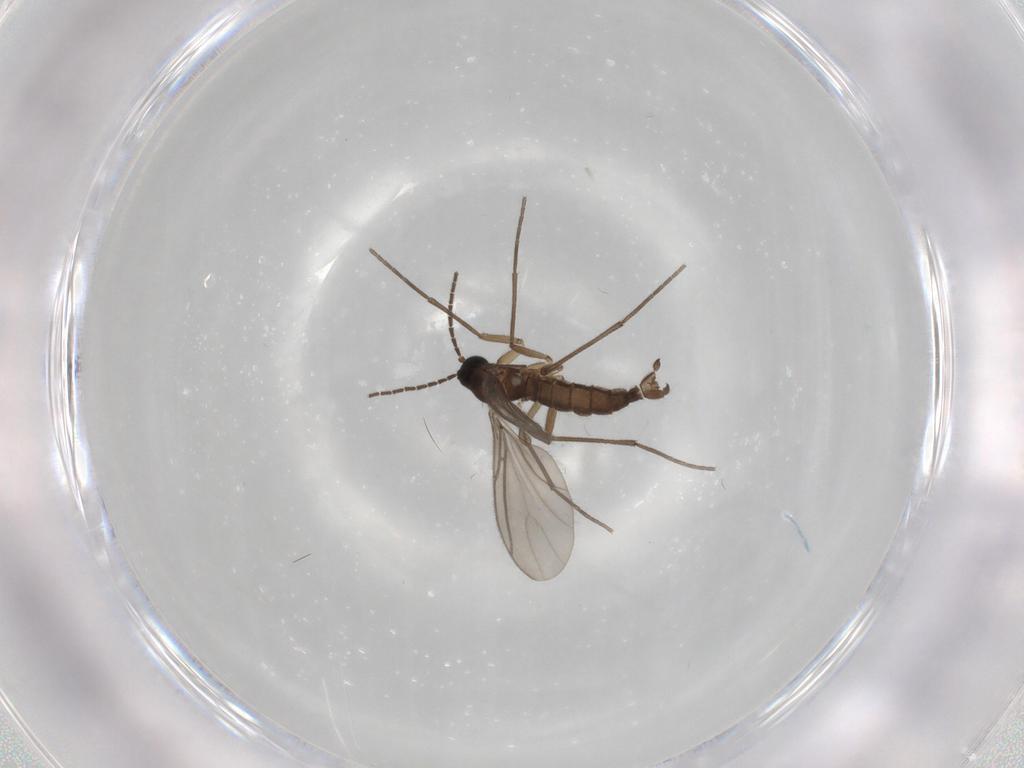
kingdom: Animalia
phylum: Arthropoda
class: Insecta
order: Diptera
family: Sciaridae
